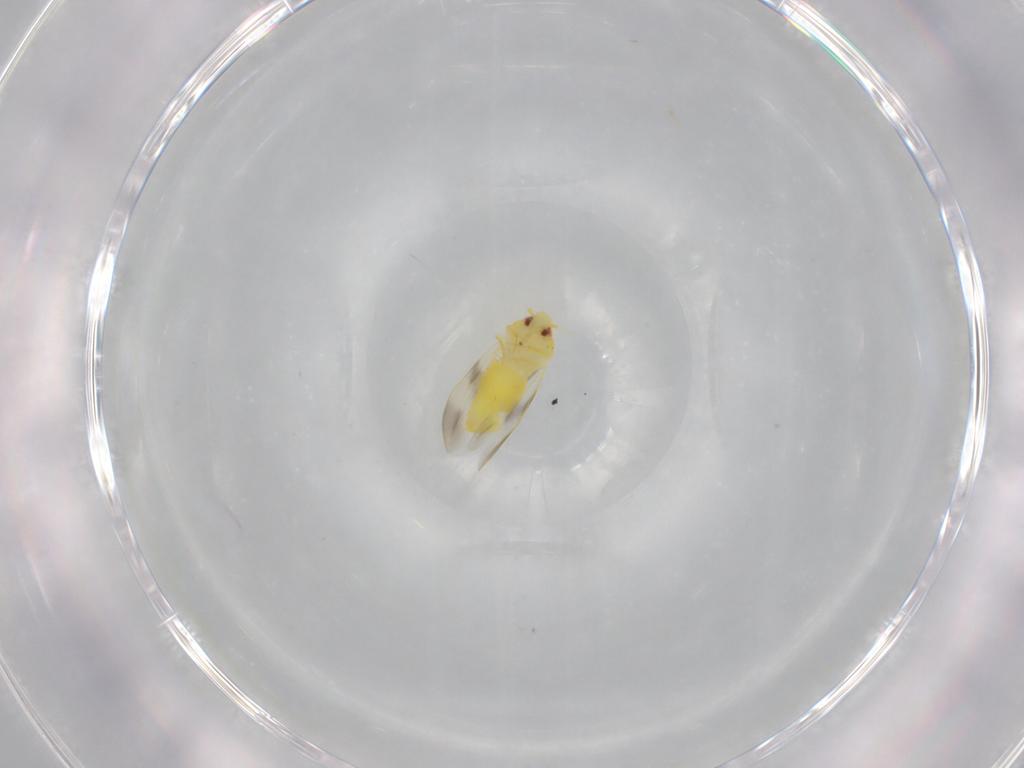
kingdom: Animalia
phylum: Arthropoda
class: Insecta
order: Hemiptera
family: Aleyrodidae
